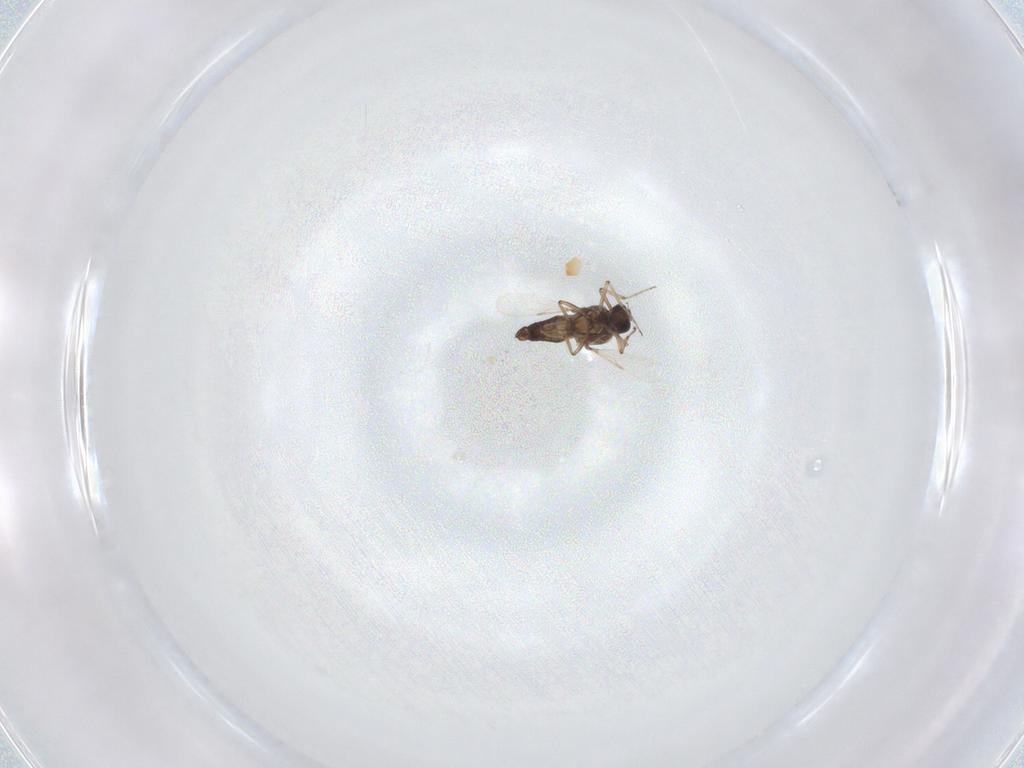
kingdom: Animalia
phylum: Arthropoda
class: Insecta
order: Diptera
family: Ceratopogonidae
